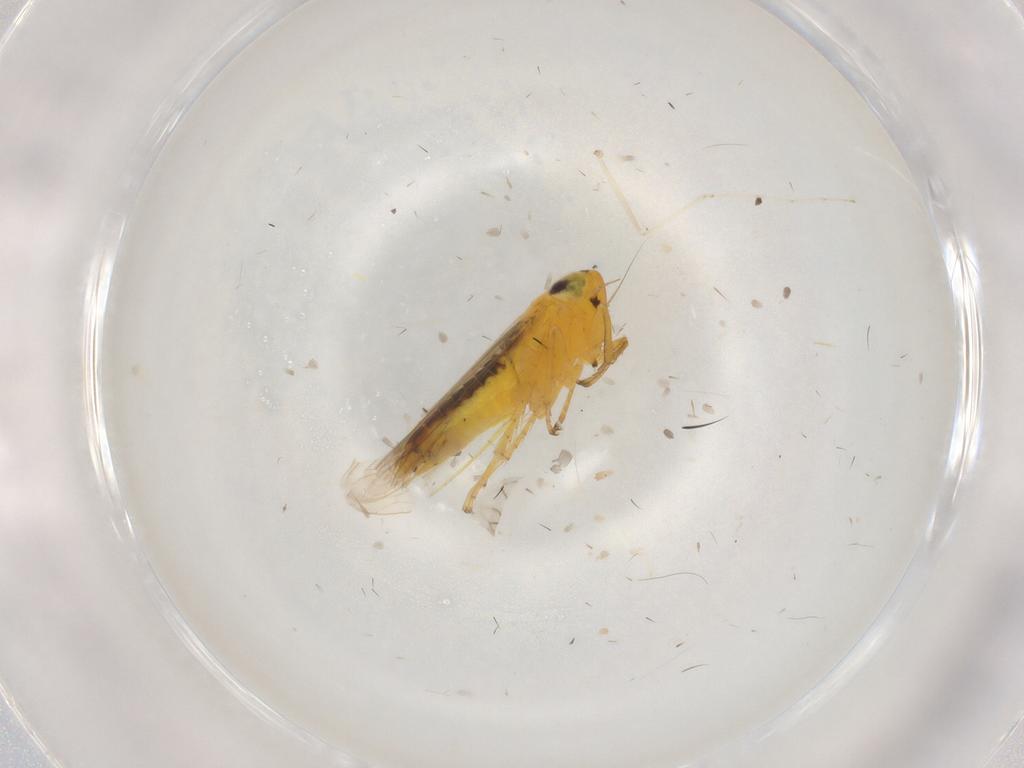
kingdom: Animalia
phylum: Arthropoda
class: Insecta
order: Hemiptera
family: Cicadellidae
